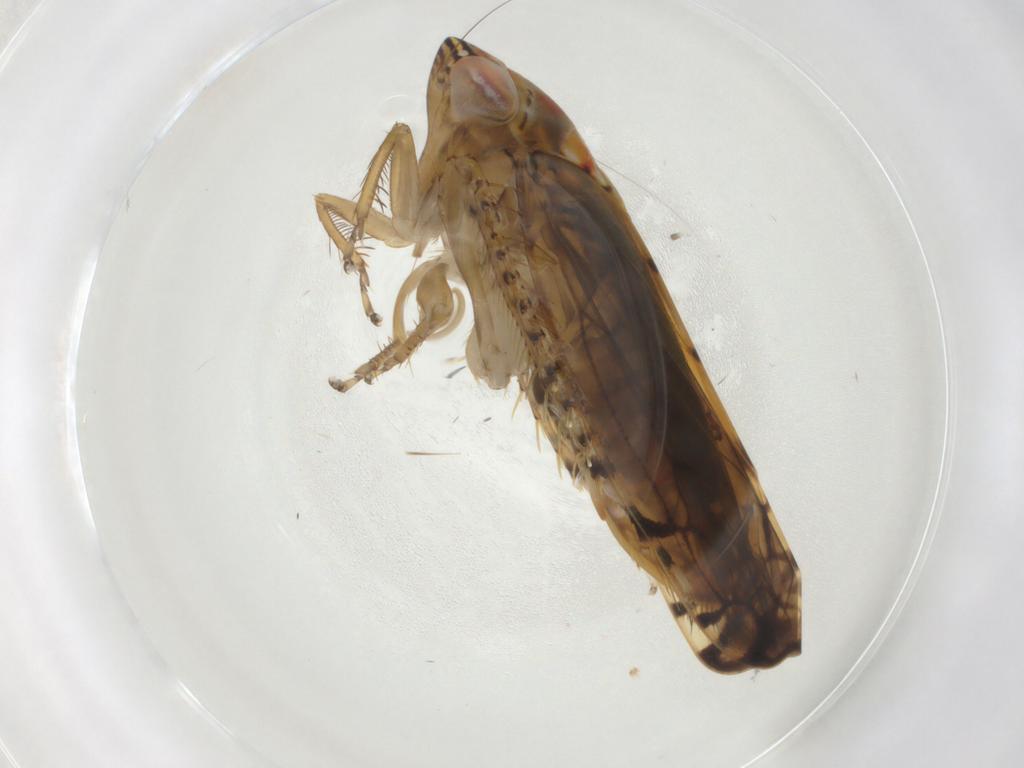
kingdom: Animalia
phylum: Arthropoda
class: Insecta
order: Hemiptera
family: Cicadellidae
